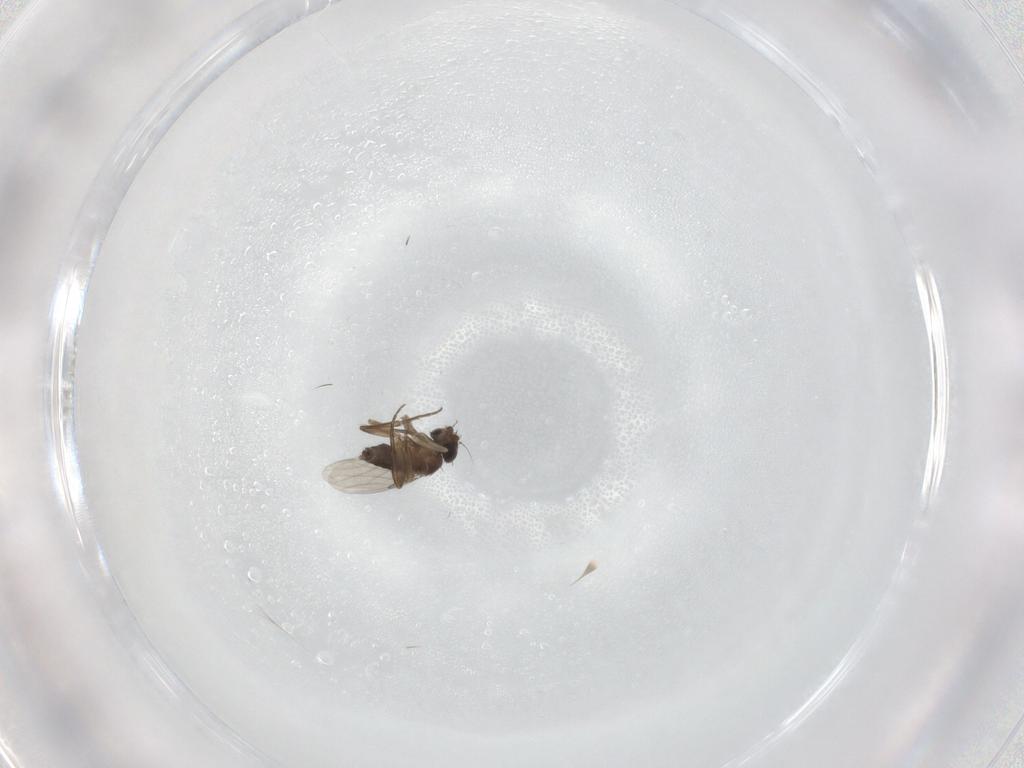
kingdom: Animalia
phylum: Arthropoda
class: Insecta
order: Diptera
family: Phoridae
